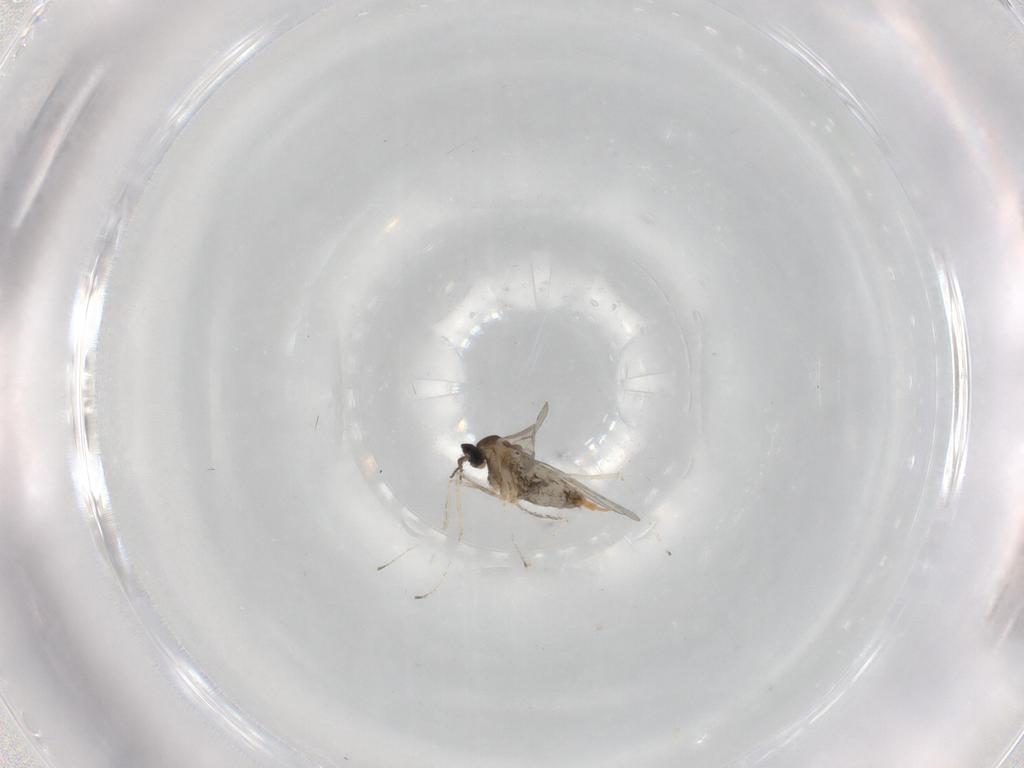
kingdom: Animalia
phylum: Arthropoda
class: Insecta
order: Diptera
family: Cecidomyiidae
